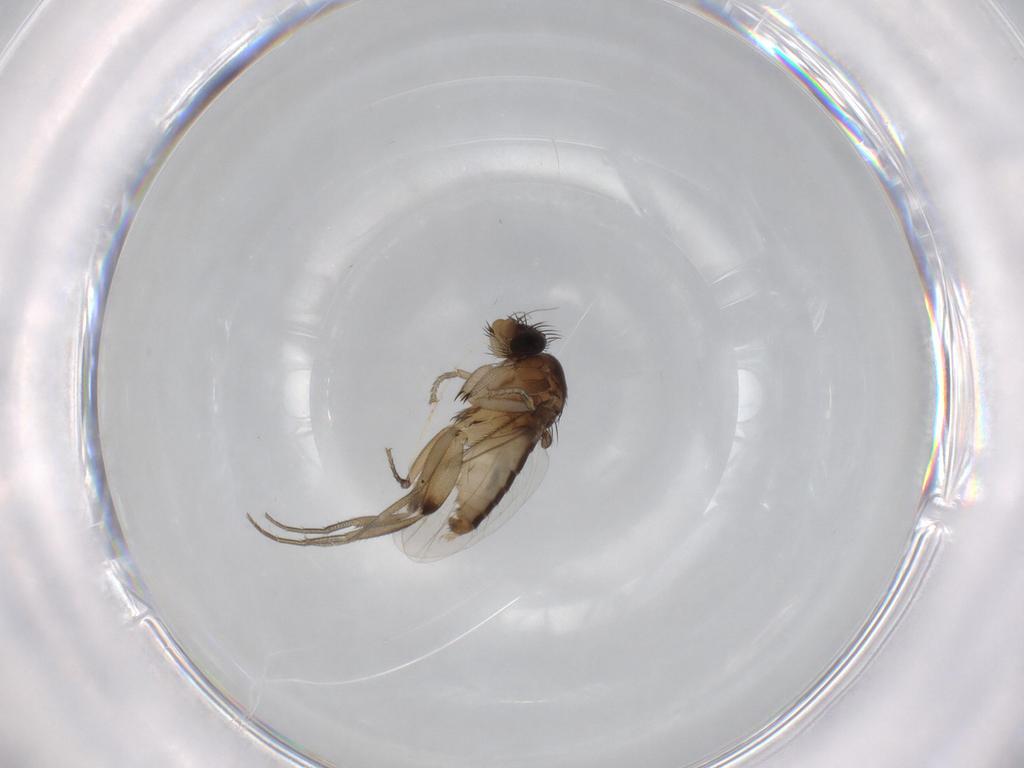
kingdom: Animalia
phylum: Arthropoda
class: Insecta
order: Diptera
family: Phoridae
